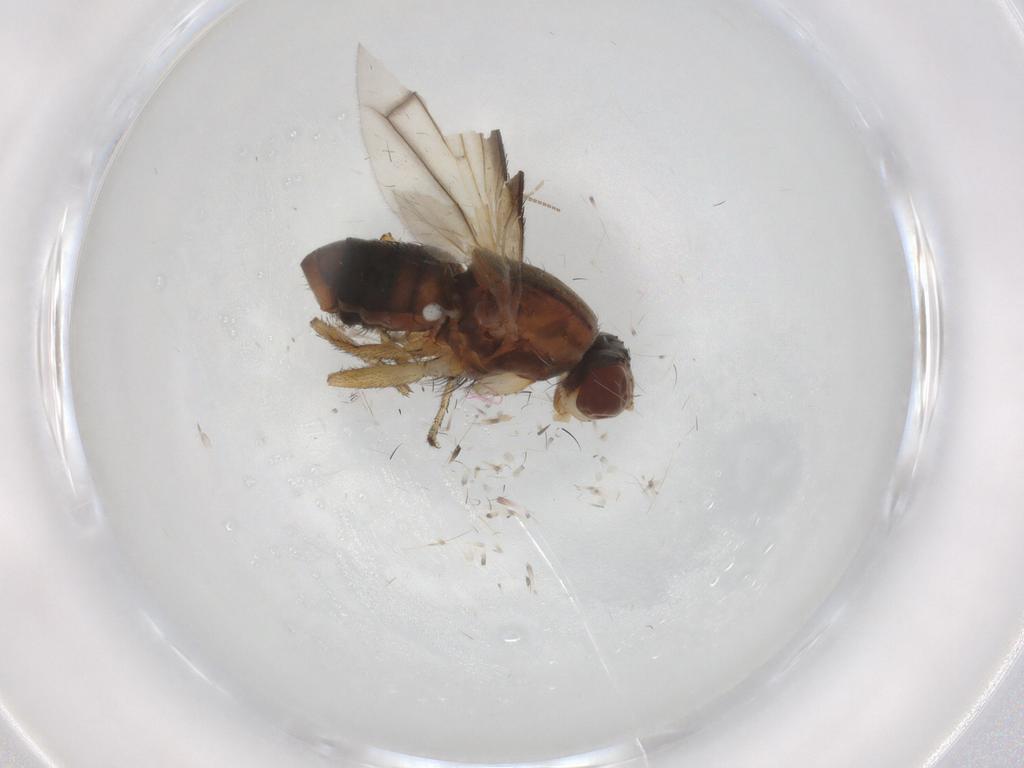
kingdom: Animalia
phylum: Arthropoda
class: Insecta
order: Diptera
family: Heleomyzidae
